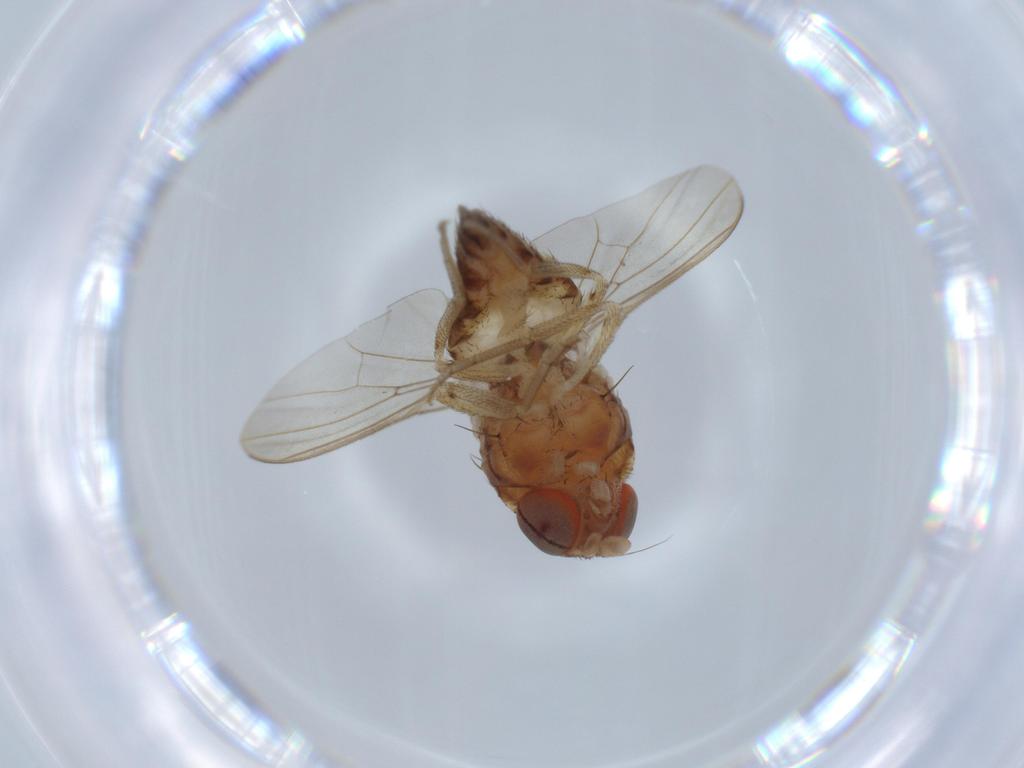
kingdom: Animalia
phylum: Arthropoda
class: Insecta
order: Diptera
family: Drosophilidae
